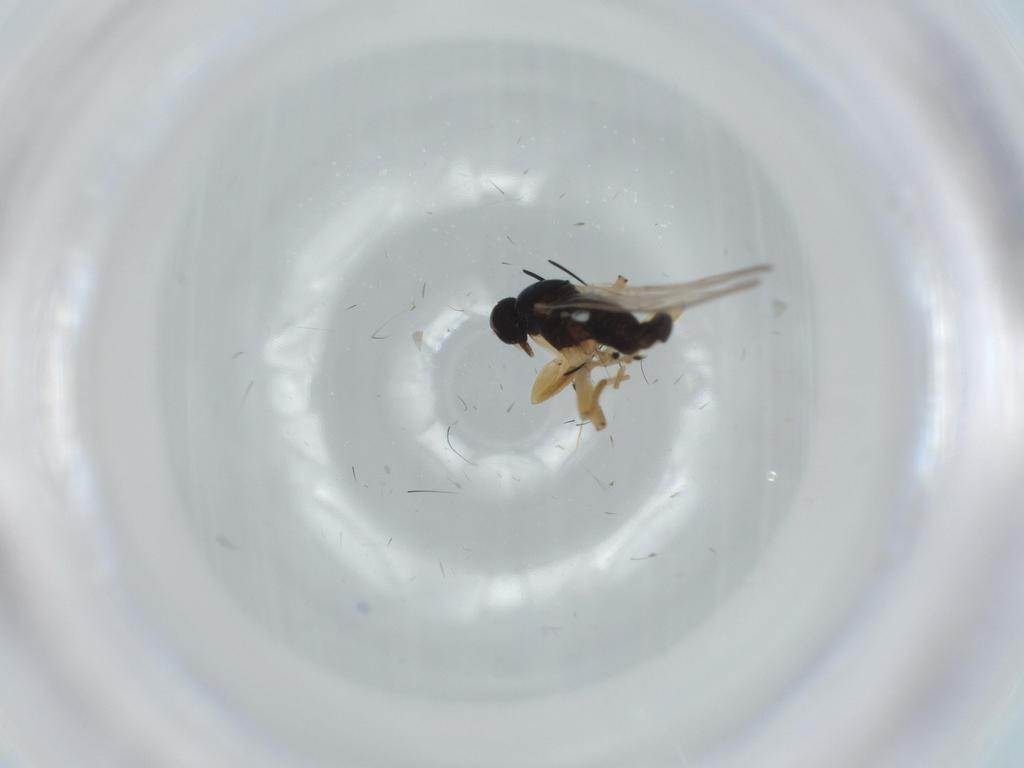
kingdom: Animalia
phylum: Arthropoda
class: Insecta
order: Diptera
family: Cecidomyiidae
